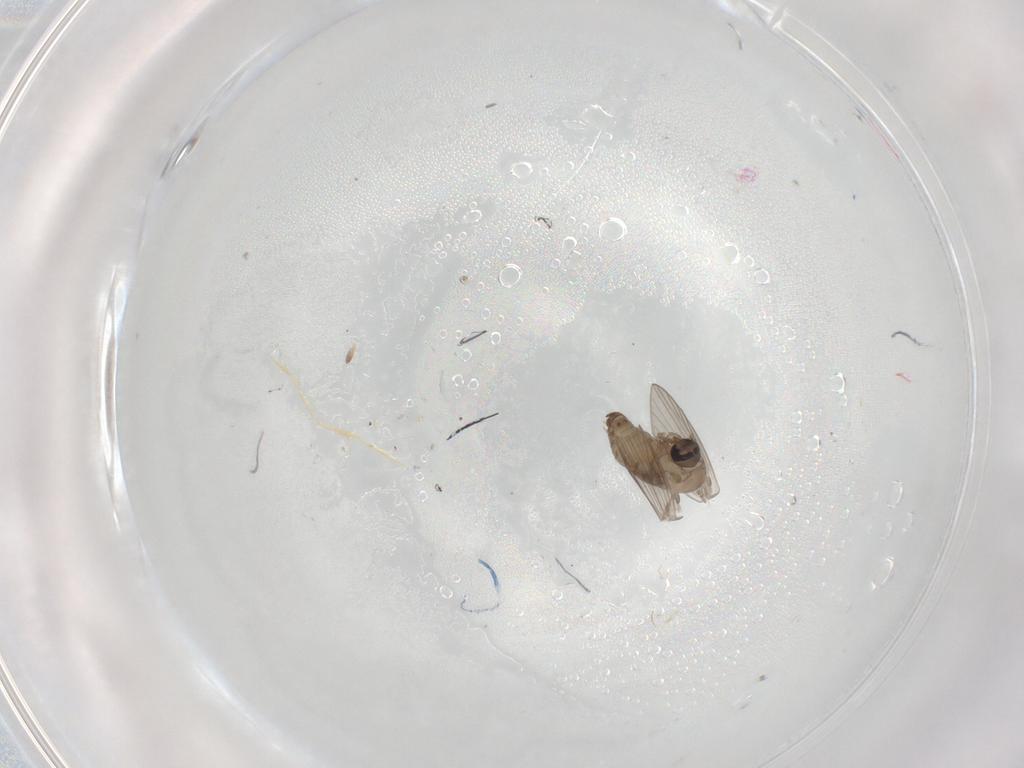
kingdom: Animalia
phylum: Arthropoda
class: Insecta
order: Diptera
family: Psychodidae
